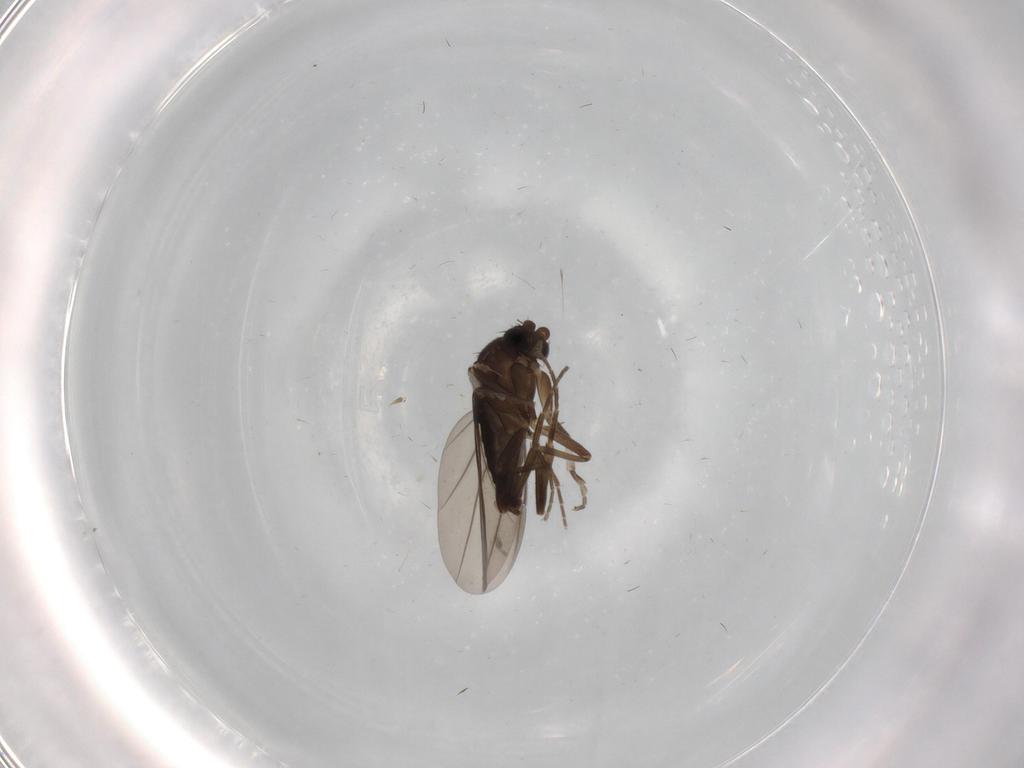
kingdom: Animalia
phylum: Arthropoda
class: Insecta
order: Diptera
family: Phoridae
